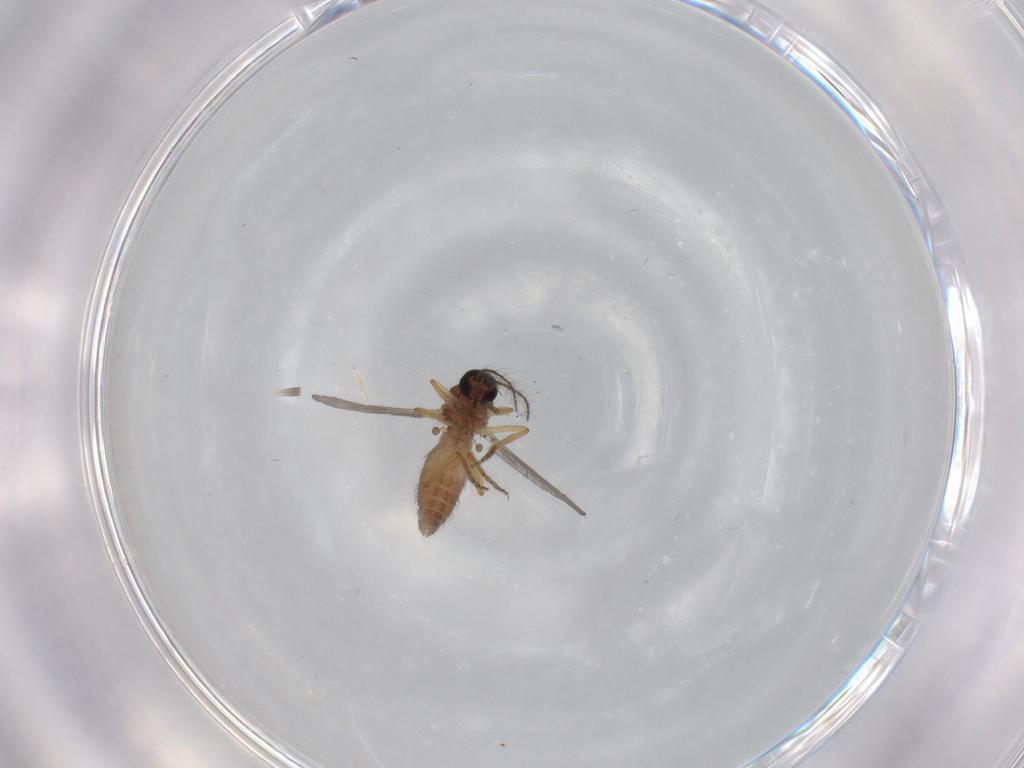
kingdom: Animalia
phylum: Arthropoda
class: Insecta
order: Diptera
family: Ceratopogonidae
